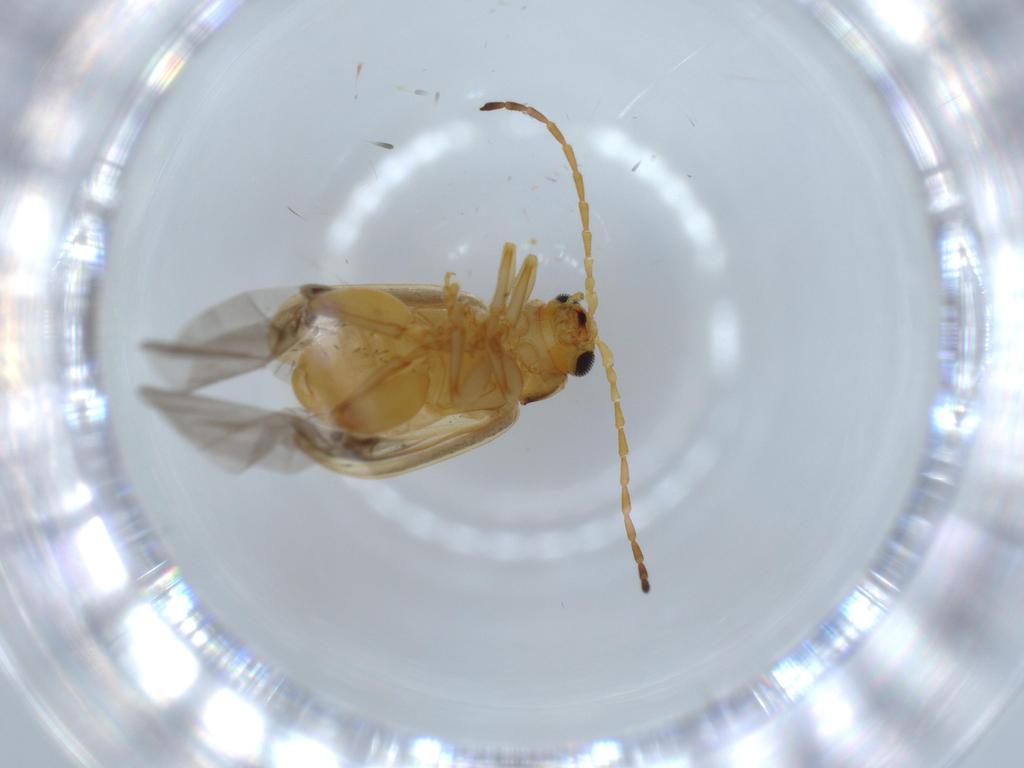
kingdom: Animalia
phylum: Arthropoda
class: Insecta
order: Coleoptera
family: Chrysomelidae
